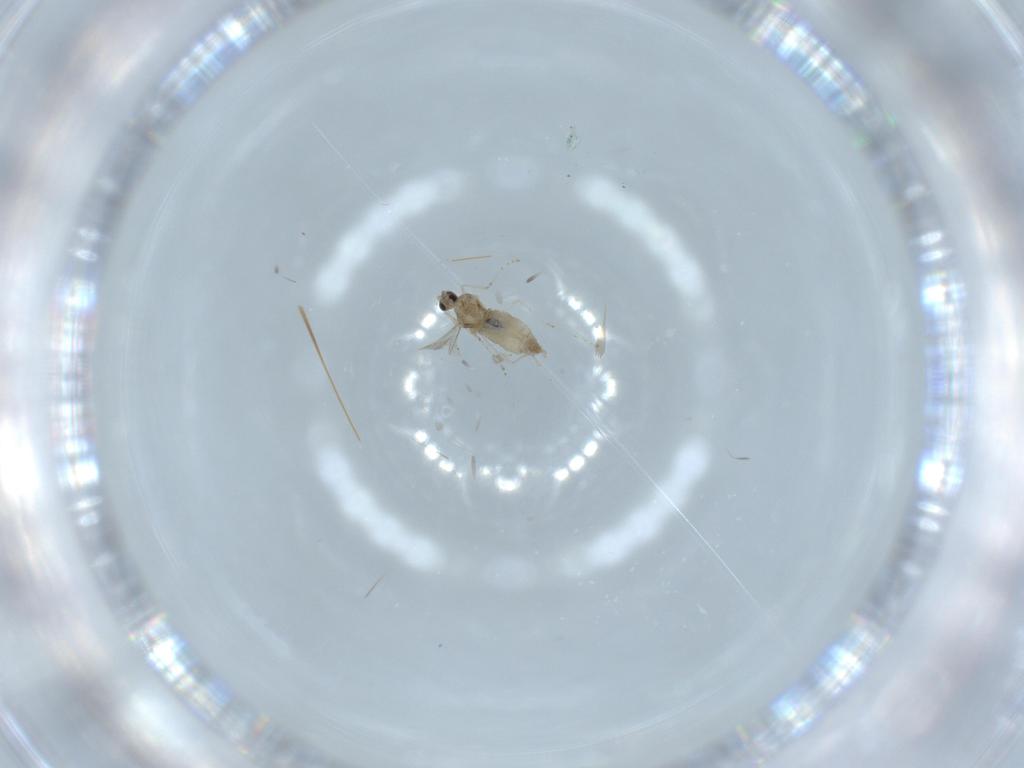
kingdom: Animalia
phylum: Arthropoda
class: Insecta
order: Diptera
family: Cecidomyiidae
